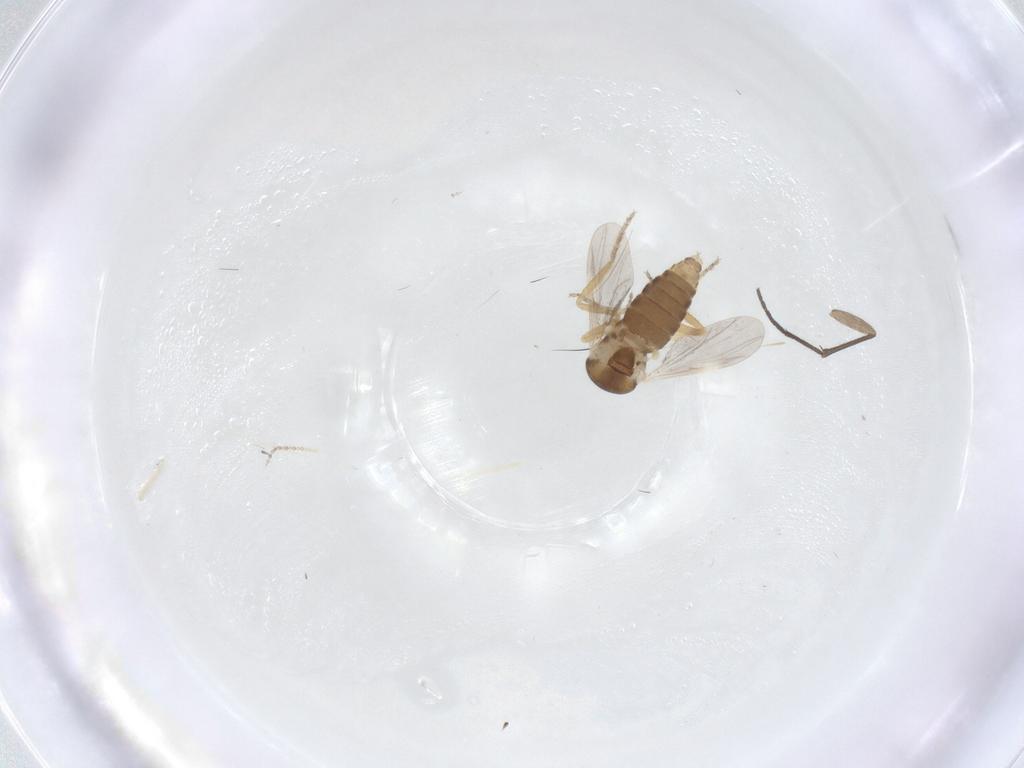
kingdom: Animalia
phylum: Arthropoda
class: Insecta
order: Diptera
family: Ceratopogonidae
